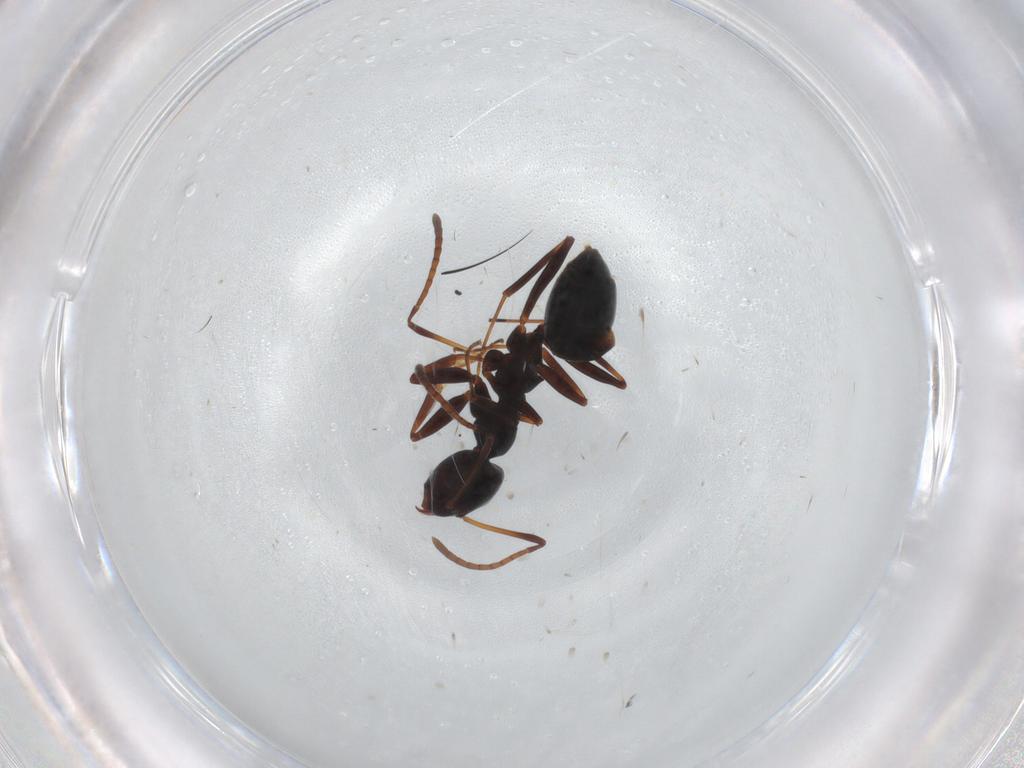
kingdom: Animalia
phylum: Arthropoda
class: Insecta
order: Hymenoptera
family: Formicidae
